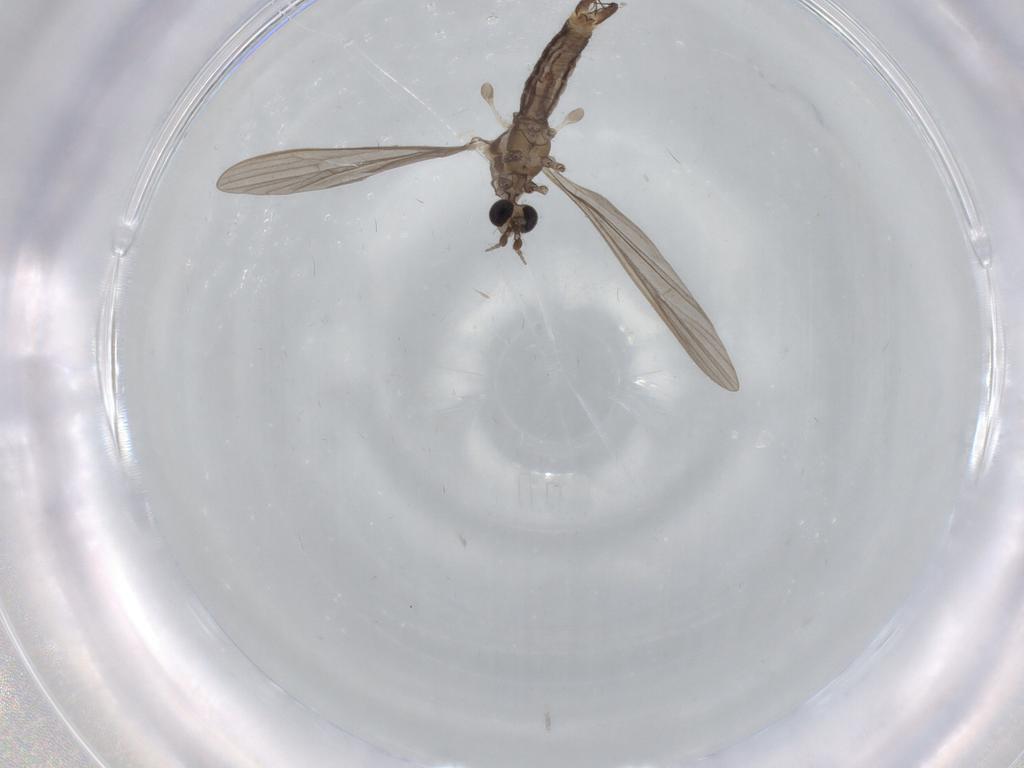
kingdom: Animalia
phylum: Arthropoda
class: Insecta
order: Diptera
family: Limoniidae
